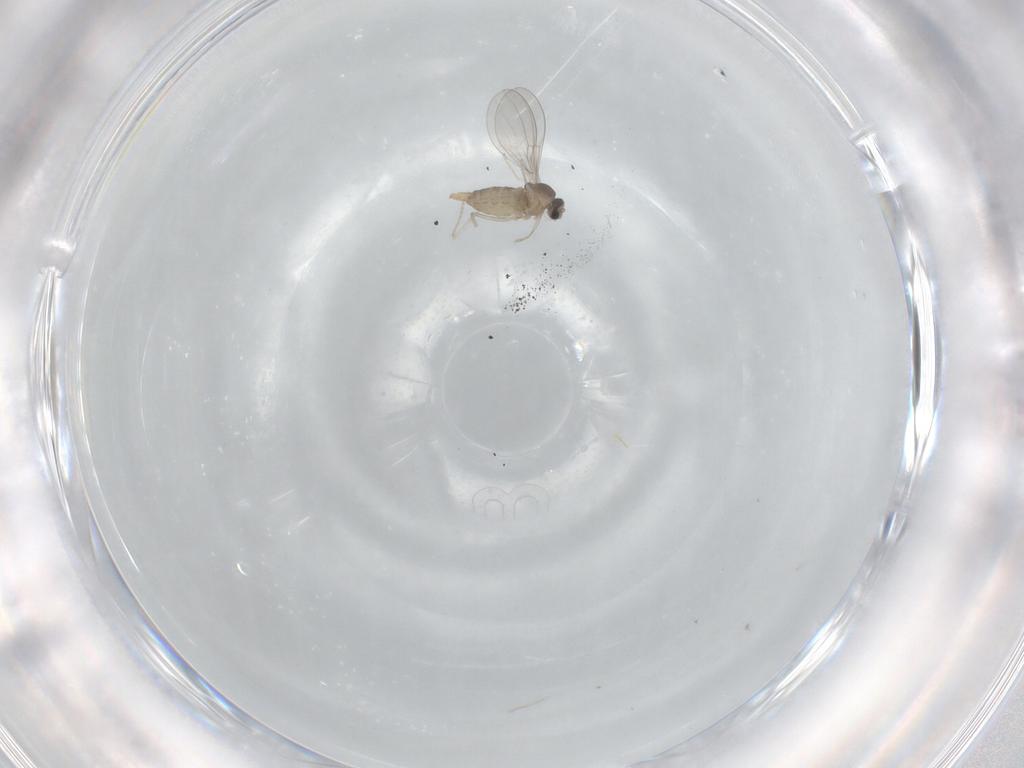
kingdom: Animalia
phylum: Arthropoda
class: Insecta
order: Diptera
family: Cecidomyiidae
